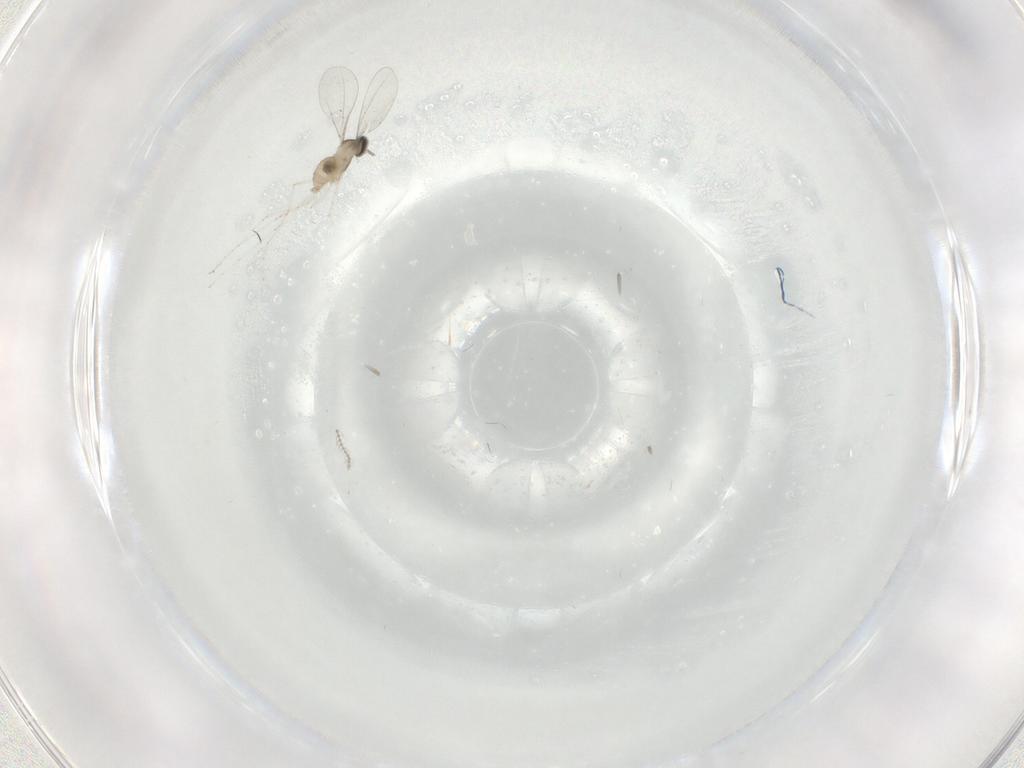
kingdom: Animalia
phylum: Arthropoda
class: Insecta
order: Diptera
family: Cecidomyiidae
